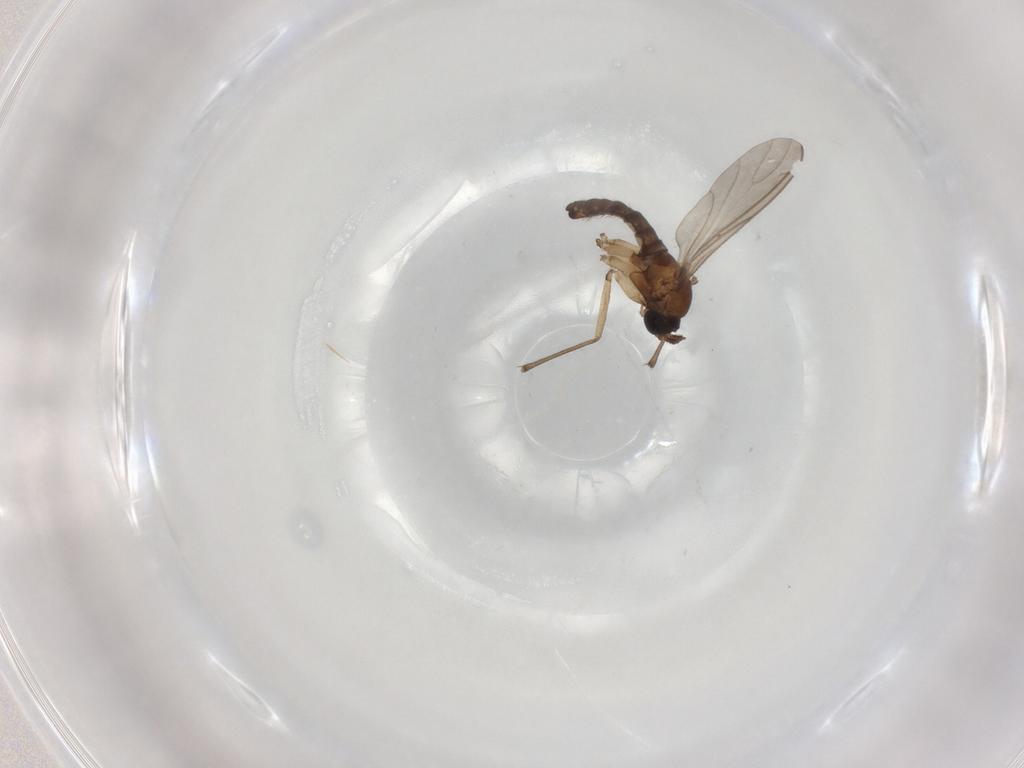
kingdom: Animalia
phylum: Arthropoda
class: Insecta
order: Diptera
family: Sciaridae
